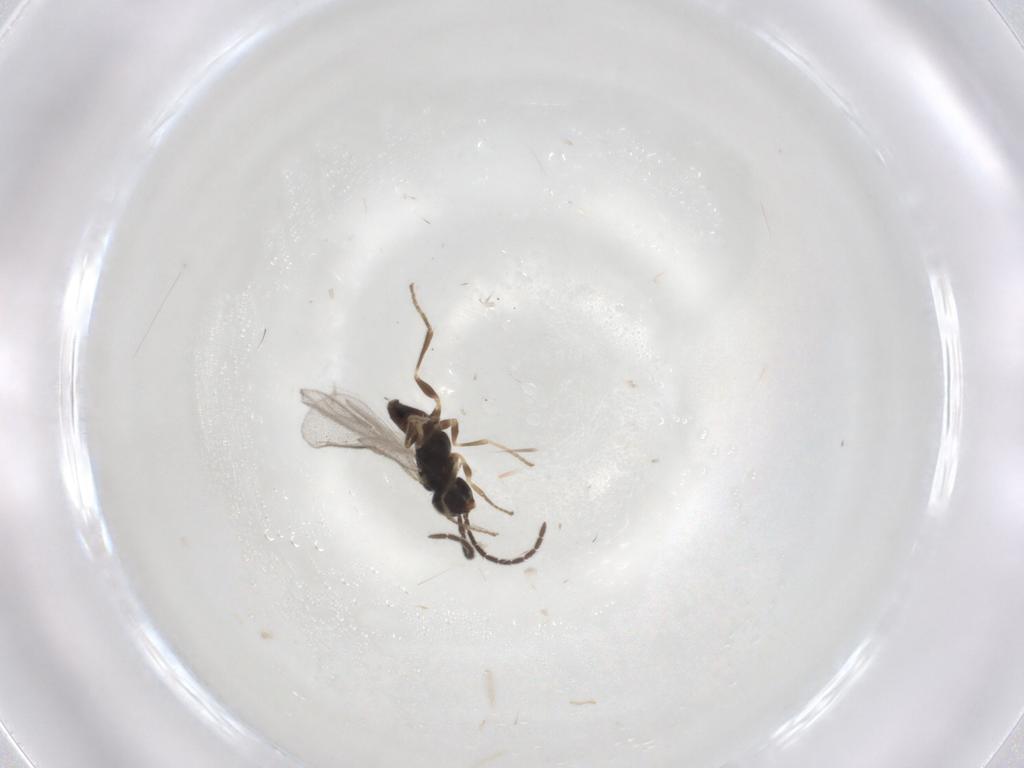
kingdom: Animalia
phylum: Arthropoda
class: Insecta
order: Hymenoptera
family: Dryinidae
